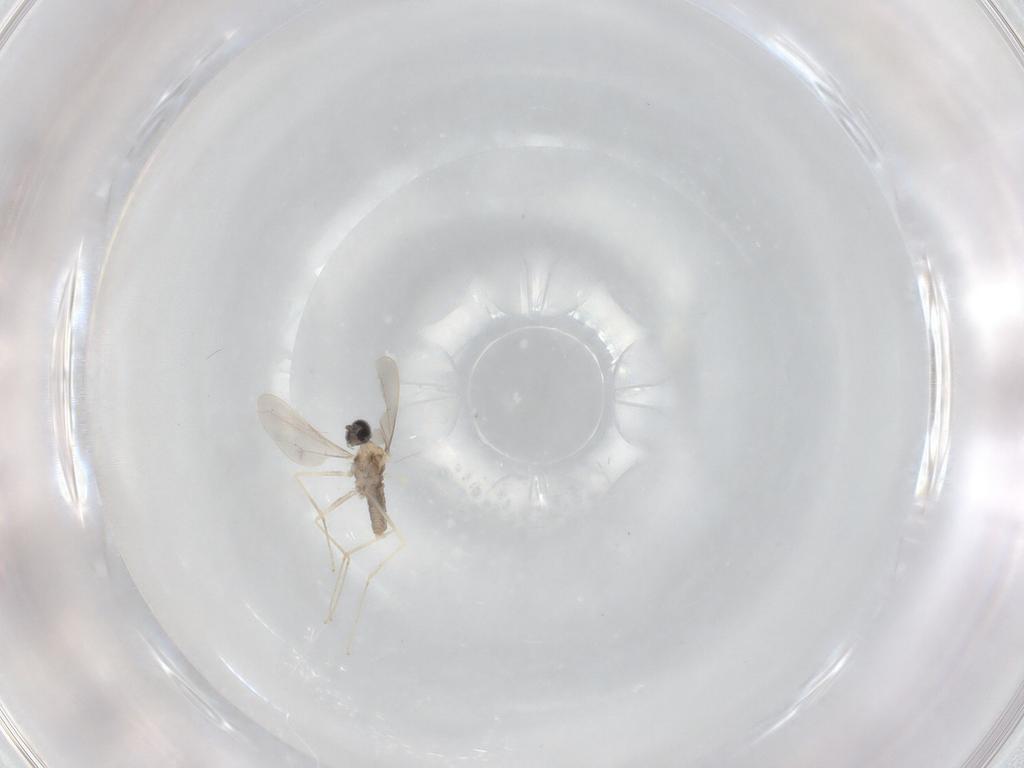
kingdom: Animalia
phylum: Arthropoda
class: Insecta
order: Diptera
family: Cecidomyiidae
